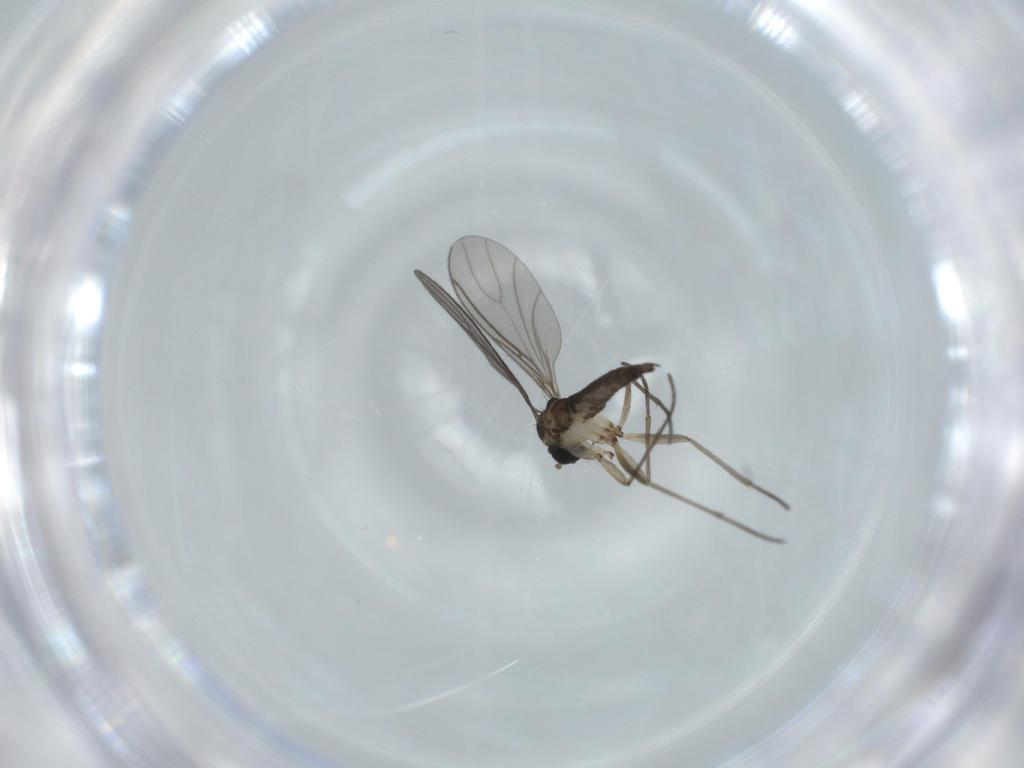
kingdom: Animalia
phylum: Arthropoda
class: Insecta
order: Diptera
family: Sciaridae
